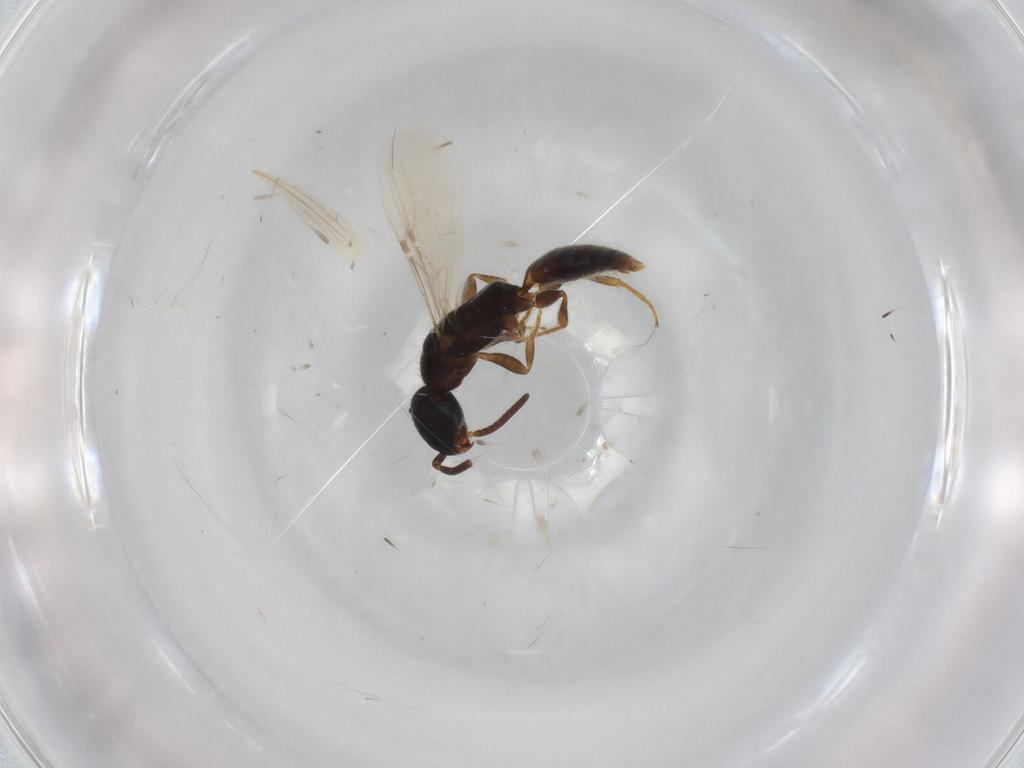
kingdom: Animalia
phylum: Arthropoda
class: Insecta
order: Hymenoptera
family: Bethylidae
